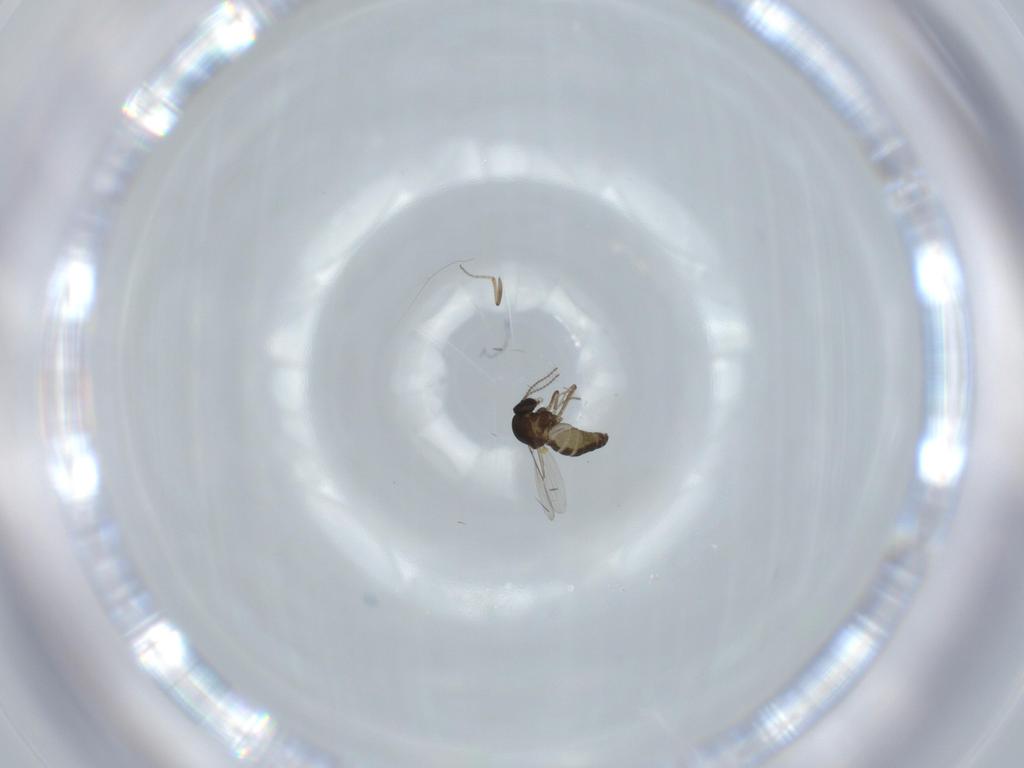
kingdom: Animalia
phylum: Arthropoda
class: Insecta
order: Diptera
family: Ceratopogonidae
